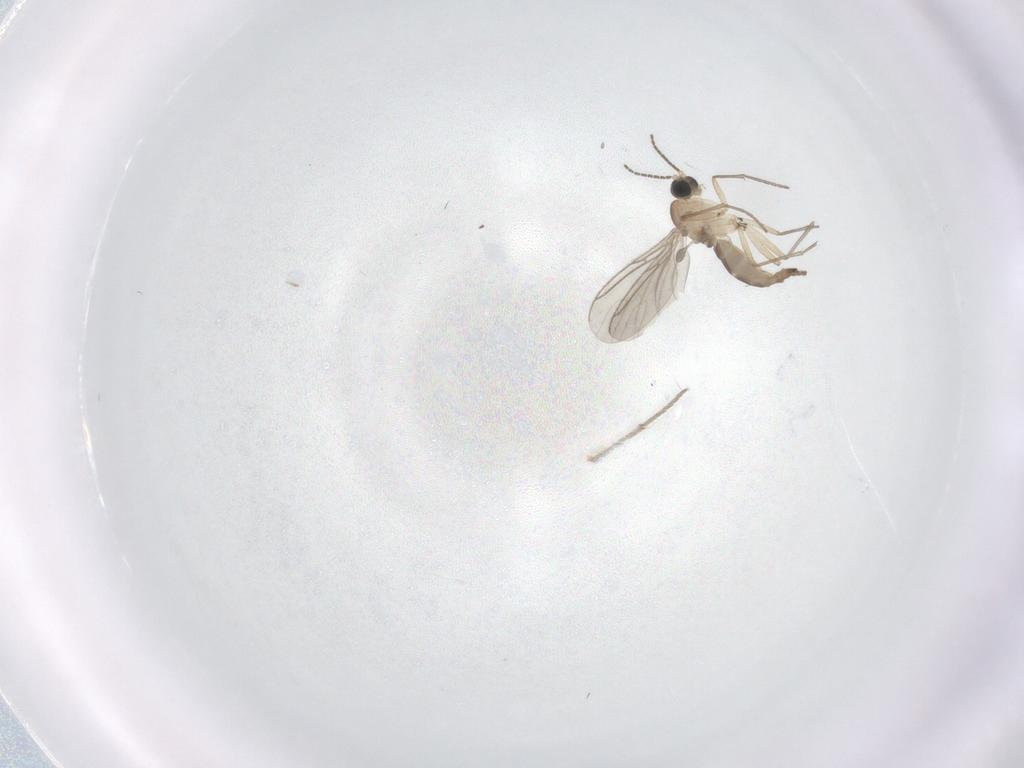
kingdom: Animalia
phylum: Arthropoda
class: Insecta
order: Diptera
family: Sciaridae
